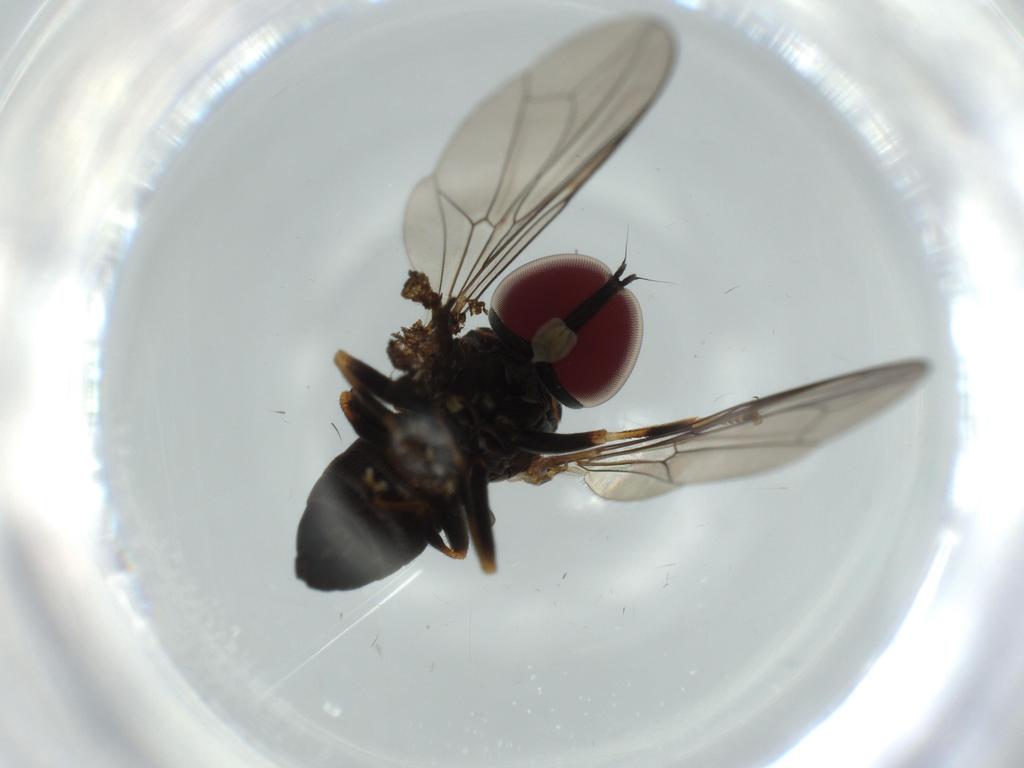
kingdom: Animalia
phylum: Arthropoda
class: Insecta
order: Diptera
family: Pipunculidae
